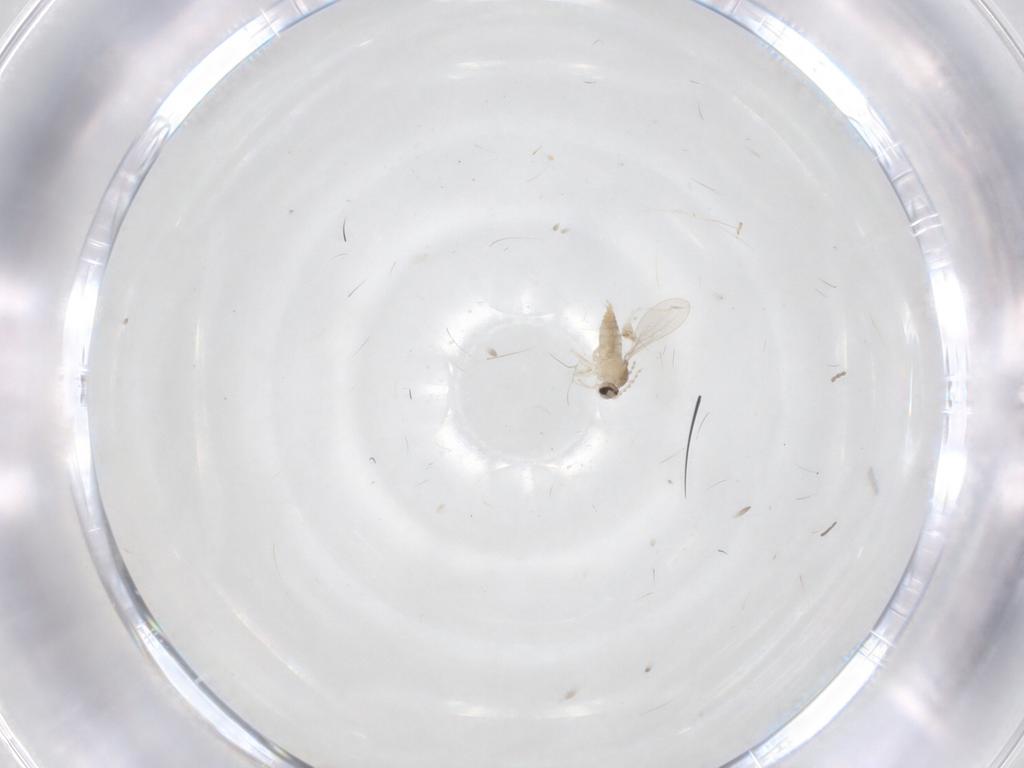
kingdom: Animalia
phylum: Arthropoda
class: Insecta
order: Diptera
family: Cecidomyiidae
